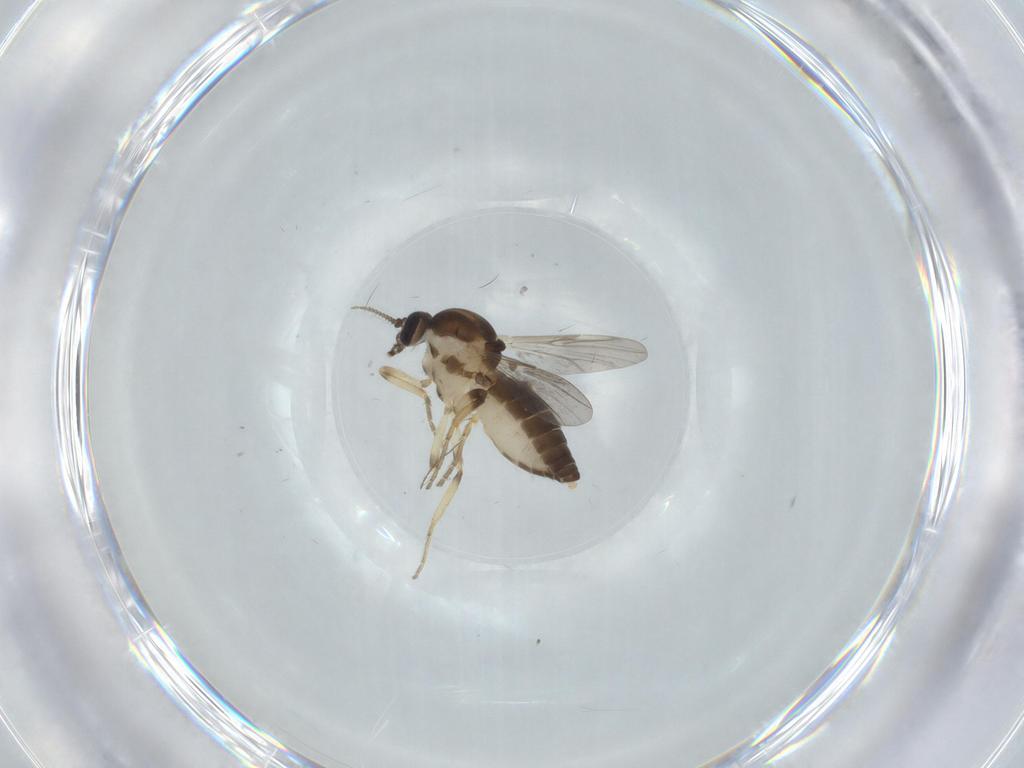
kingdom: Animalia
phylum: Arthropoda
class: Insecta
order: Diptera
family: Ceratopogonidae
